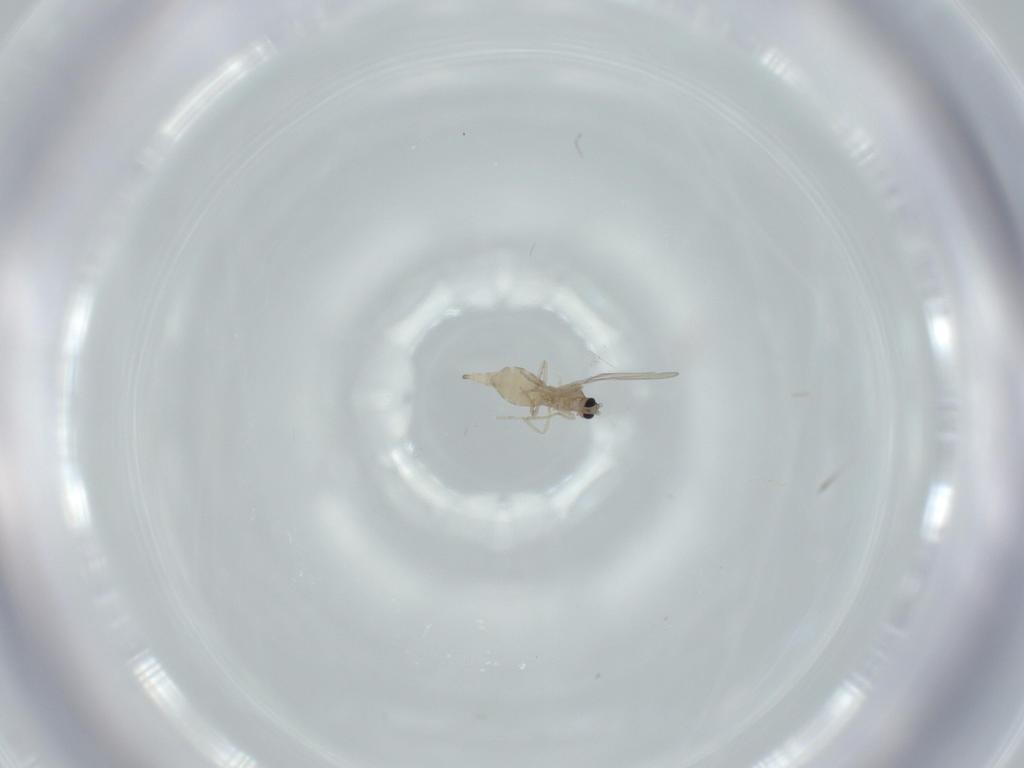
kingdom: Animalia
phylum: Arthropoda
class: Insecta
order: Diptera
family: Cecidomyiidae
